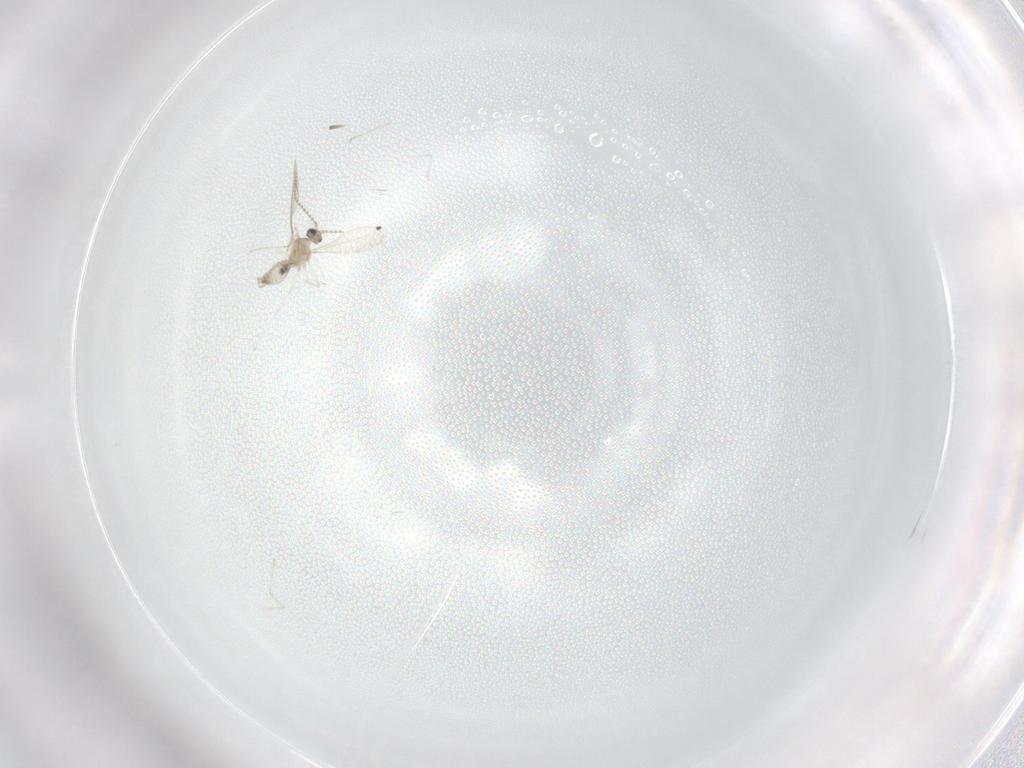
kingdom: Animalia
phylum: Arthropoda
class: Insecta
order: Diptera
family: Cecidomyiidae
